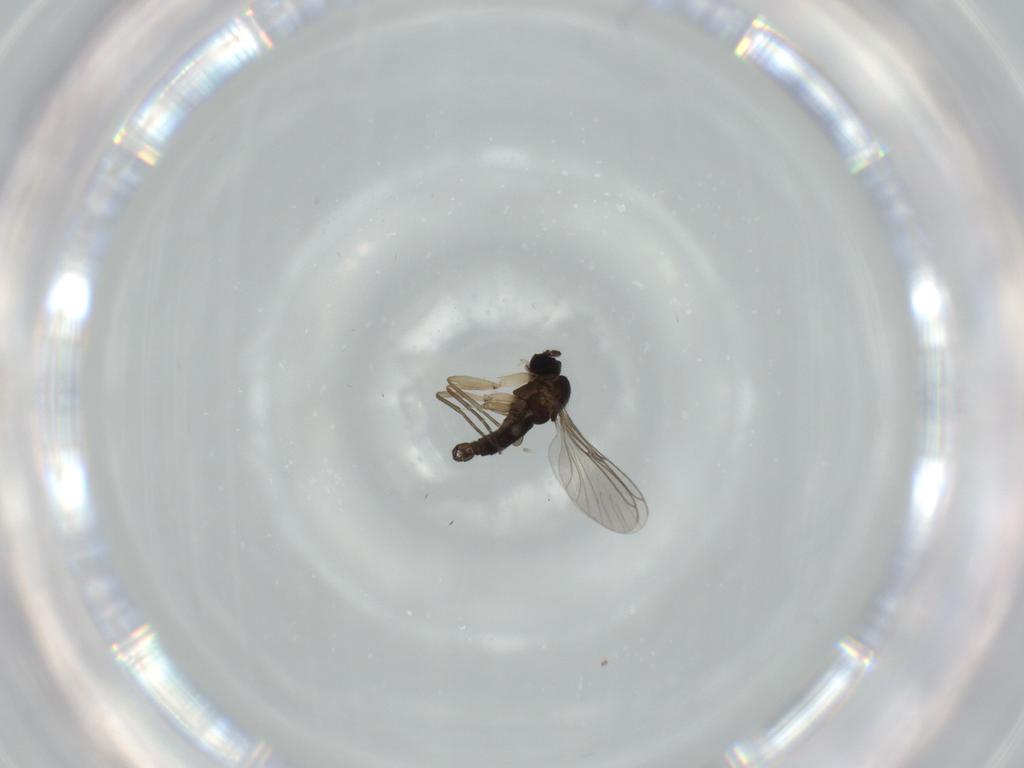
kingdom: Animalia
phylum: Arthropoda
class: Insecta
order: Diptera
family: Sciaridae
